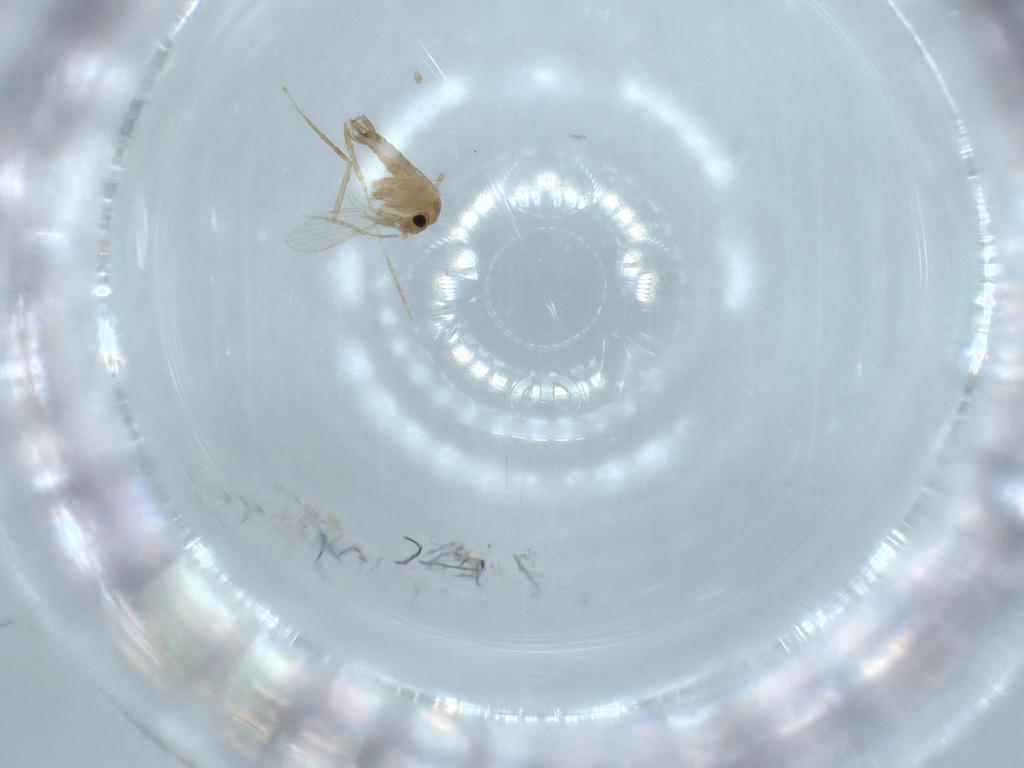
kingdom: Animalia
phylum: Arthropoda
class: Insecta
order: Diptera
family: Psychodidae
